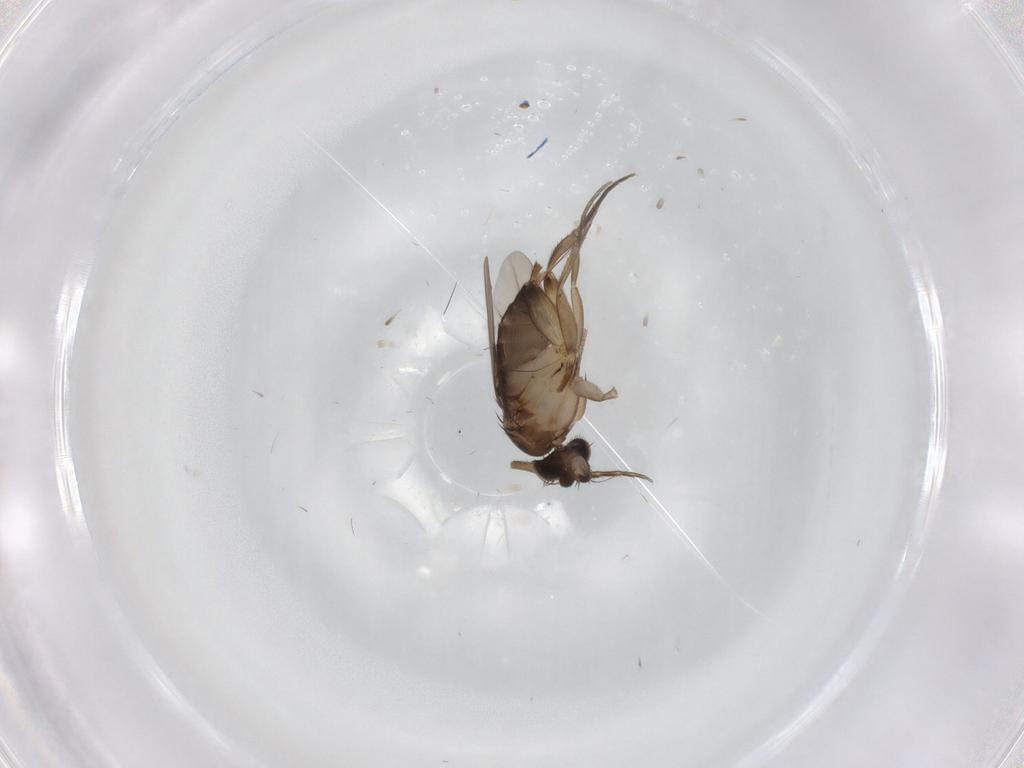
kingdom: Animalia
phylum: Arthropoda
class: Insecta
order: Diptera
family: Phoridae
